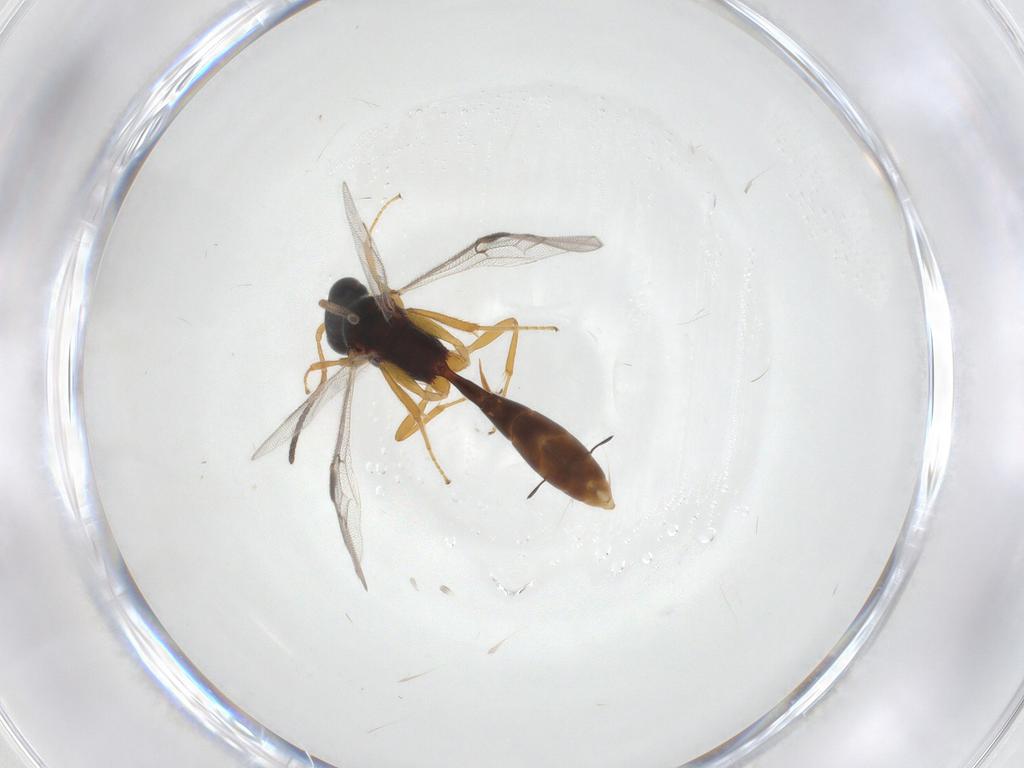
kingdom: Animalia
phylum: Arthropoda
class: Insecta
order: Hymenoptera
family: Ichneumonidae
